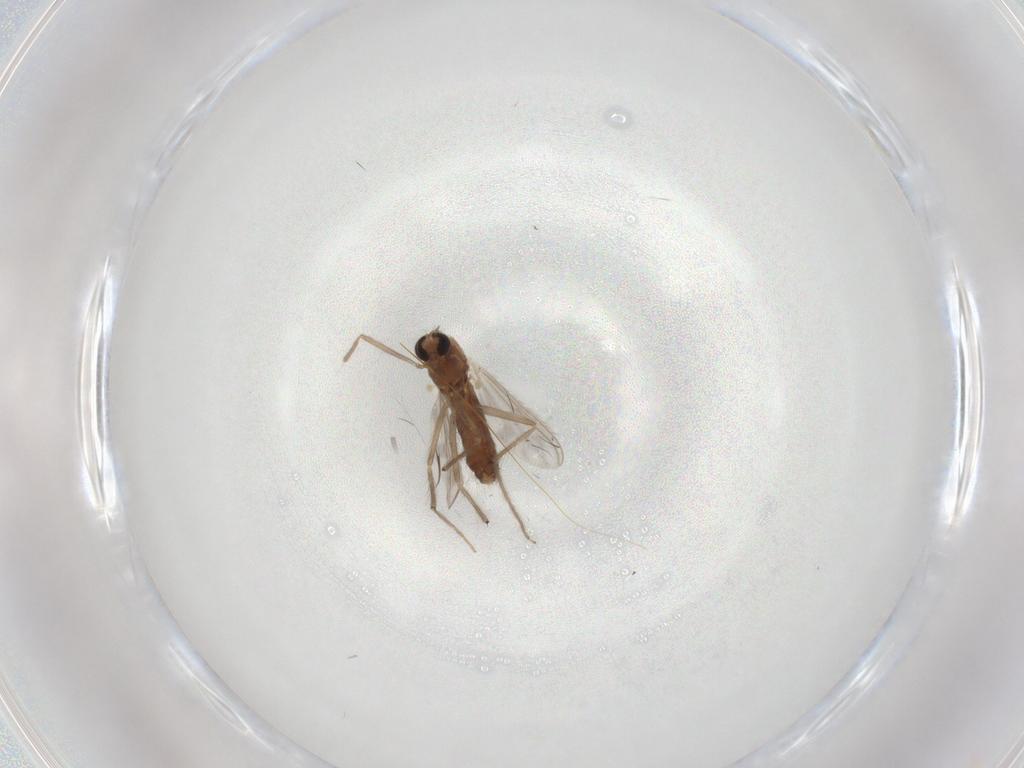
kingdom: Animalia
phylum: Arthropoda
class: Insecta
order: Diptera
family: Chironomidae
